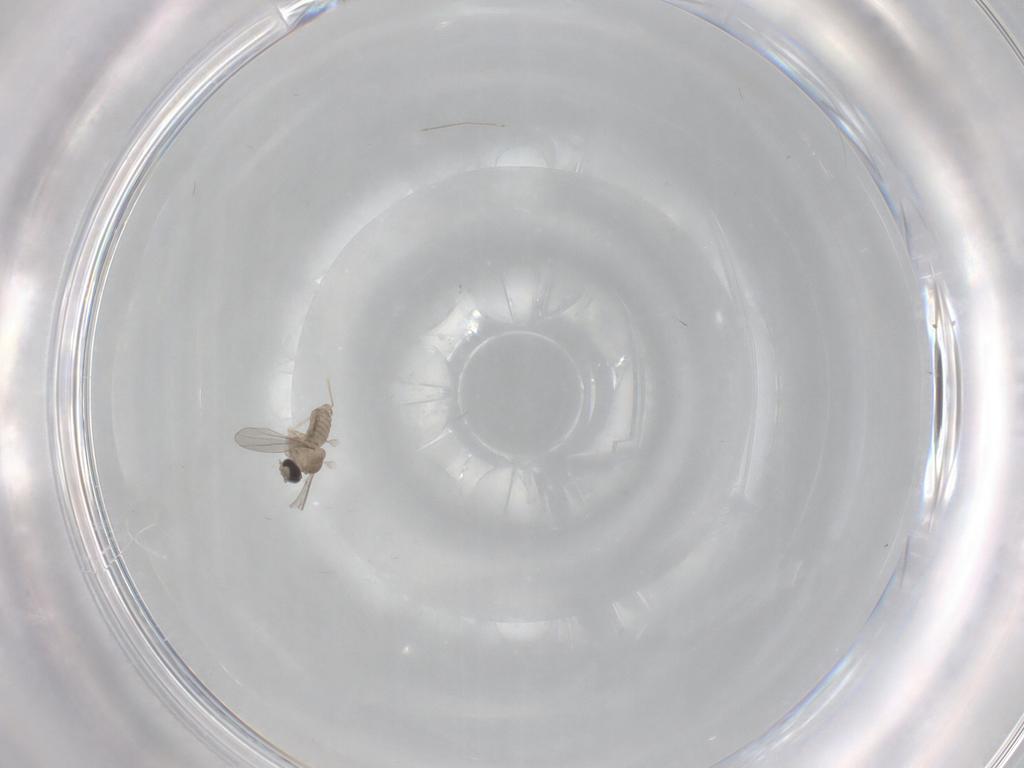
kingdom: Animalia
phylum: Arthropoda
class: Insecta
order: Diptera
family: Cecidomyiidae
